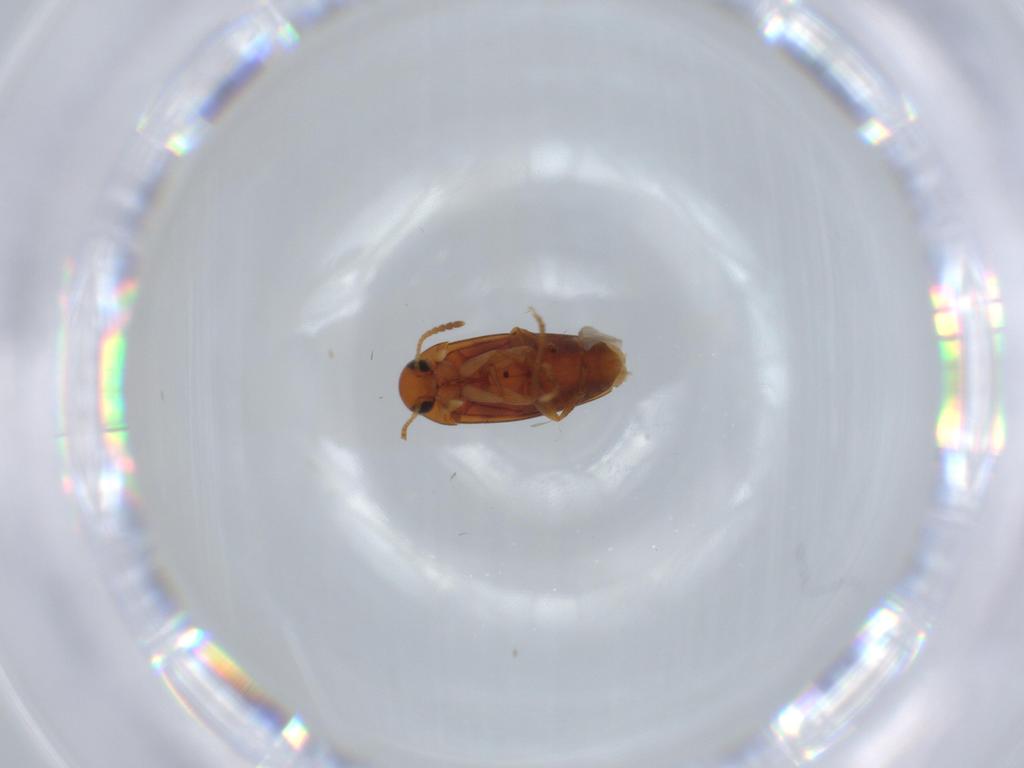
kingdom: Animalia
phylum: Arthropoda
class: Insecta
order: Coleoptera
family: Scraptiidae
